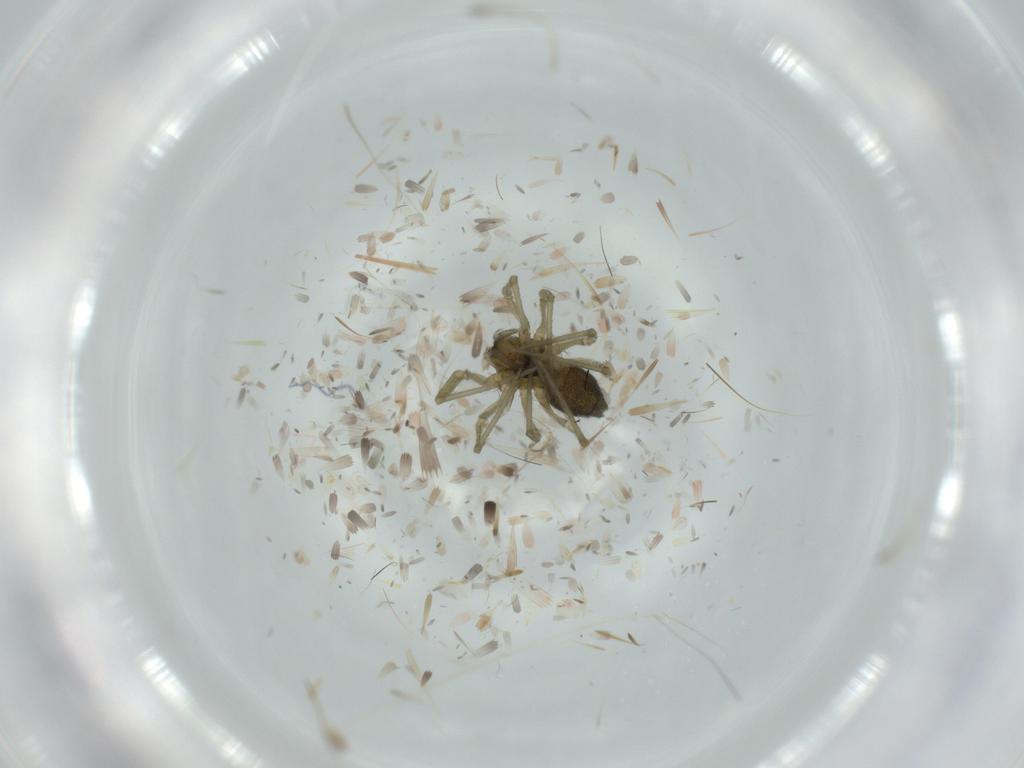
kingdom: Animalia
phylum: Arthropoda
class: Arachnida
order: Araneae
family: Linyphiidae
